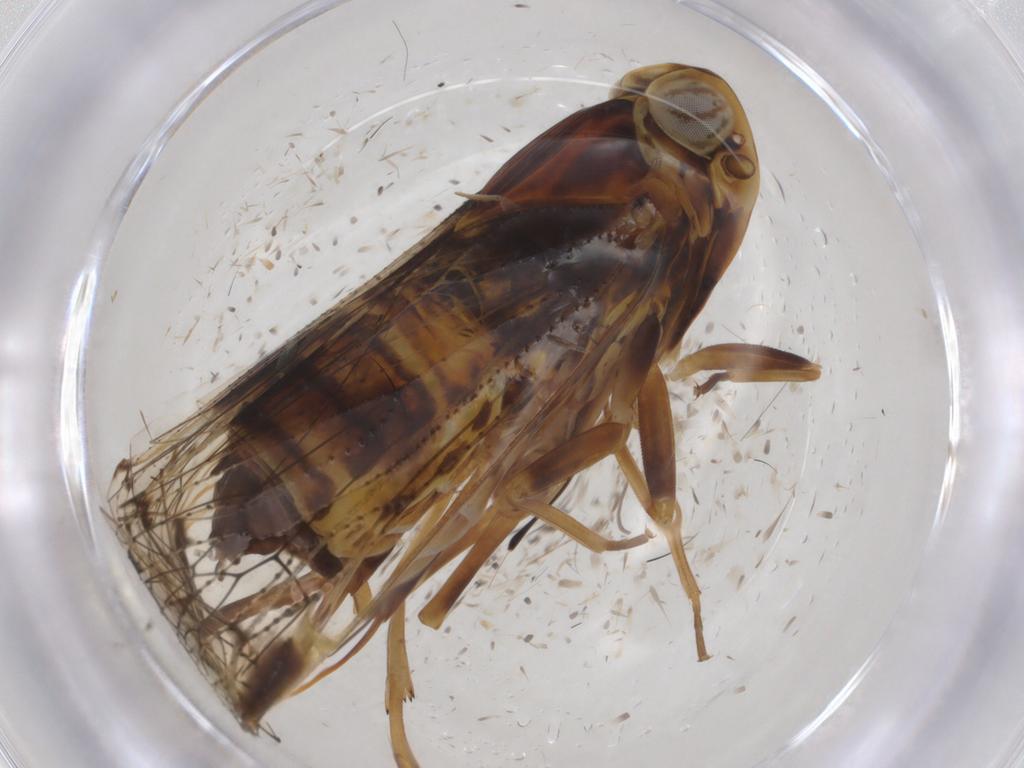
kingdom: Animalia
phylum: Arthropoda
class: Insecta
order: Hemiptera
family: Cixiidae
